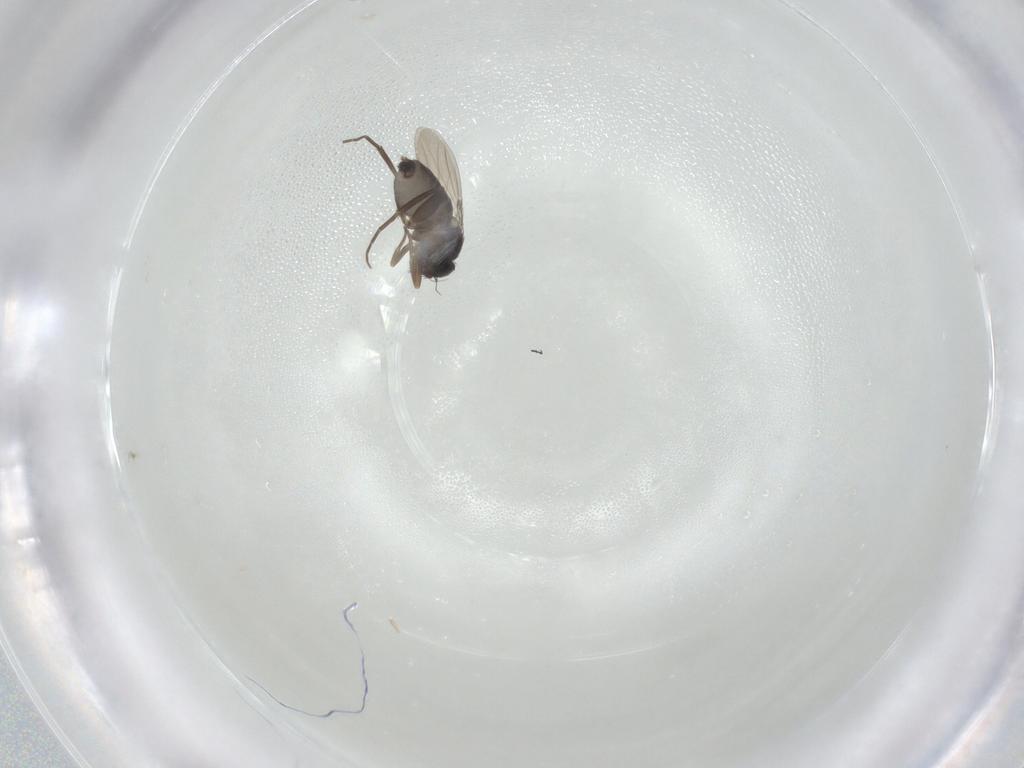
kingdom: Animalia
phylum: Arthropoda
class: Insecta
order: Diptera
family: Phoridae
